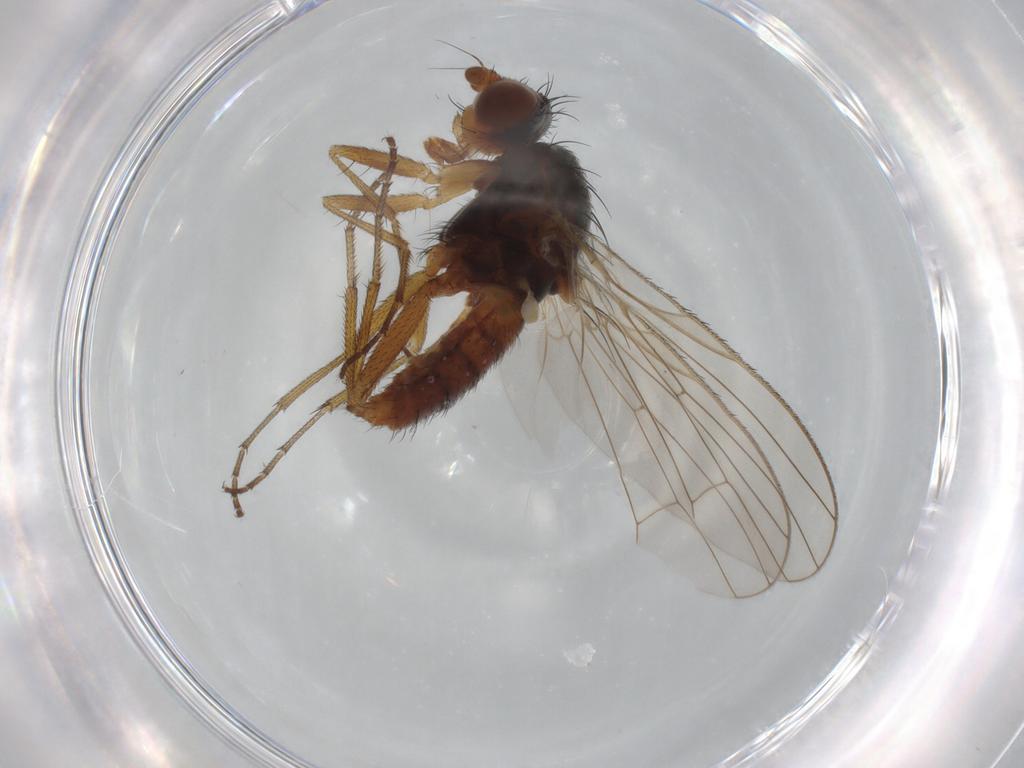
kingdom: Animalia
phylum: Arthropoda
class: Insecta
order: Diptera
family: Heleomyzidae
